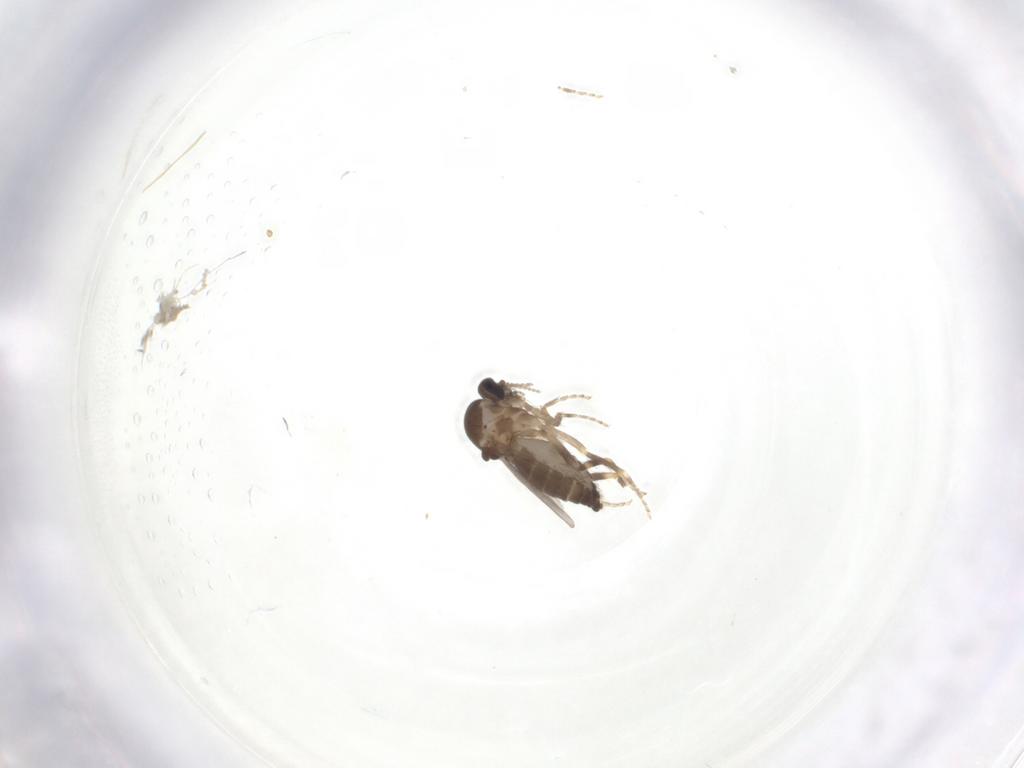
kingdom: Animalia
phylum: Arthropoda
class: Insecta
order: Diptera
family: Ceratopogonidae
